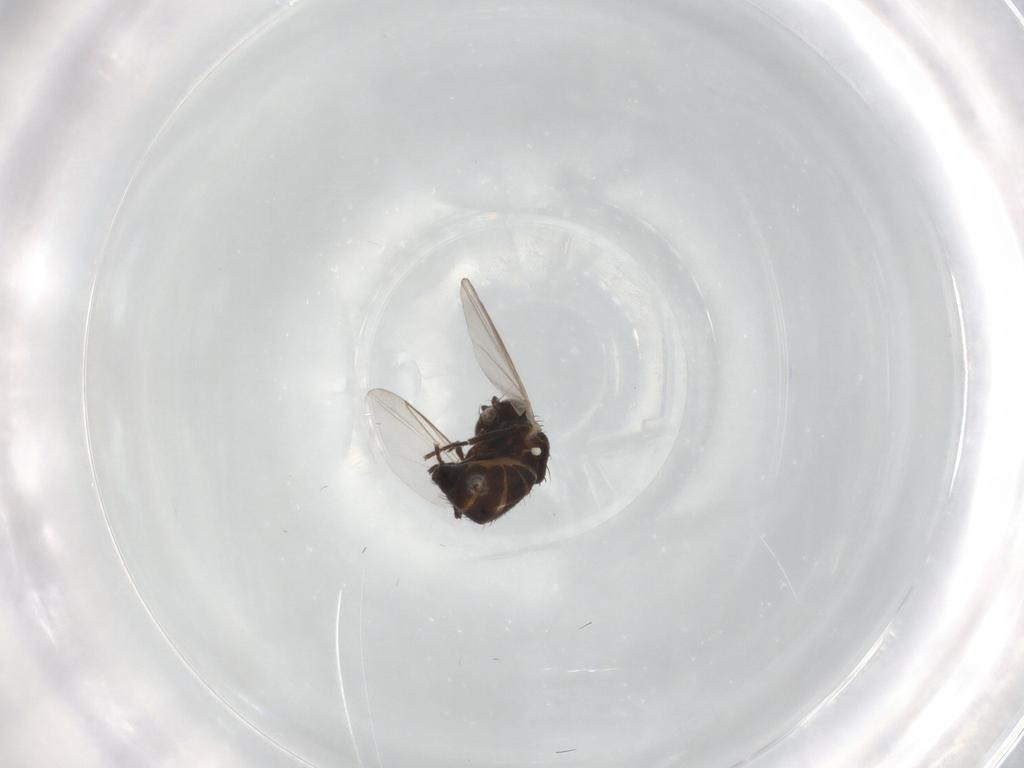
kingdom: Animalia
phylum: Arthropoda
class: Insecta
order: Diptera
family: Agromyzidae
